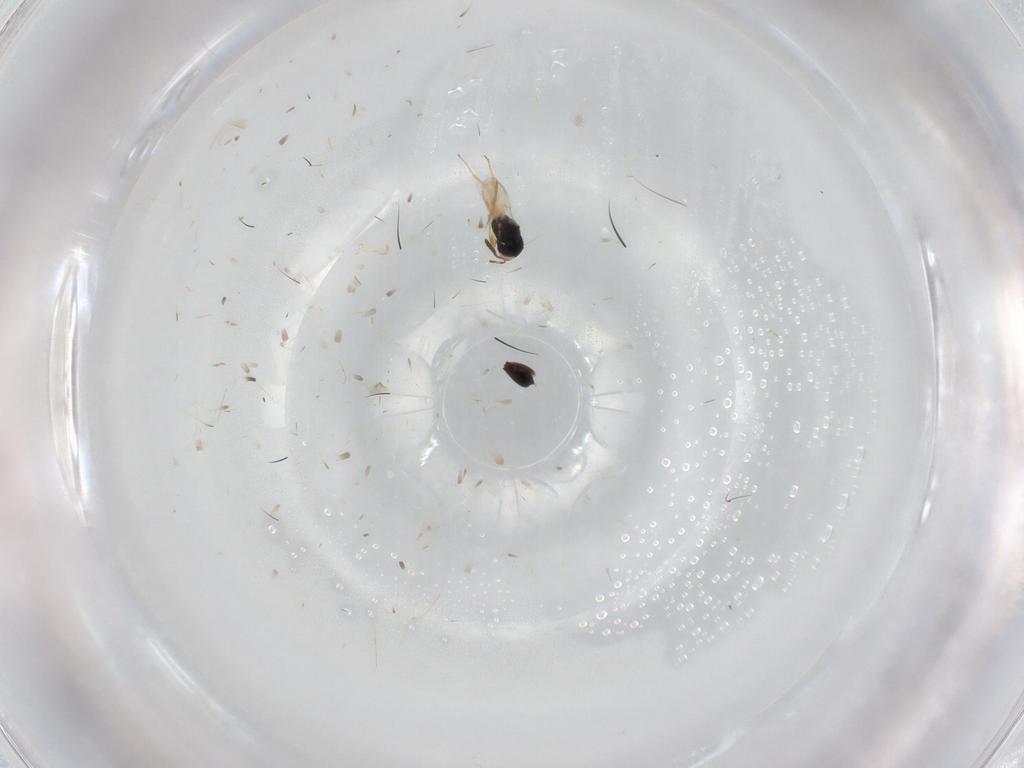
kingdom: Animalia
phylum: Arthropoda
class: Insecta
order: Hymenoptera
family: Scelionidae
